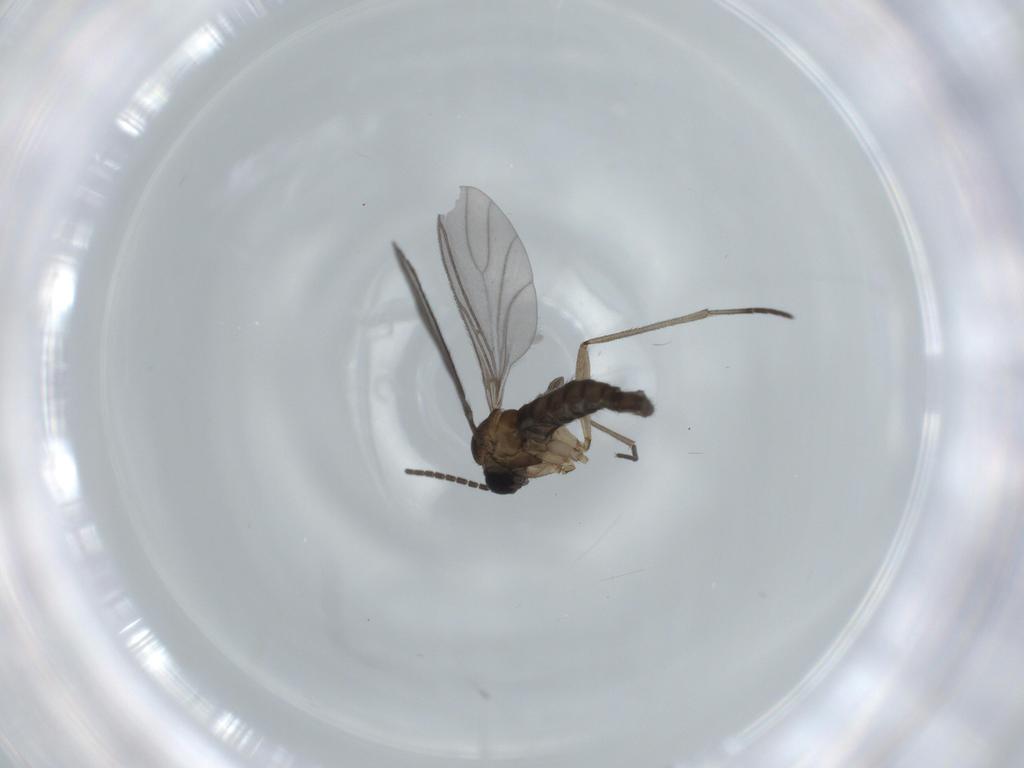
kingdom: Animalia
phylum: Arthropoda
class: Insecta
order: Diptera
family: Sciaridae
